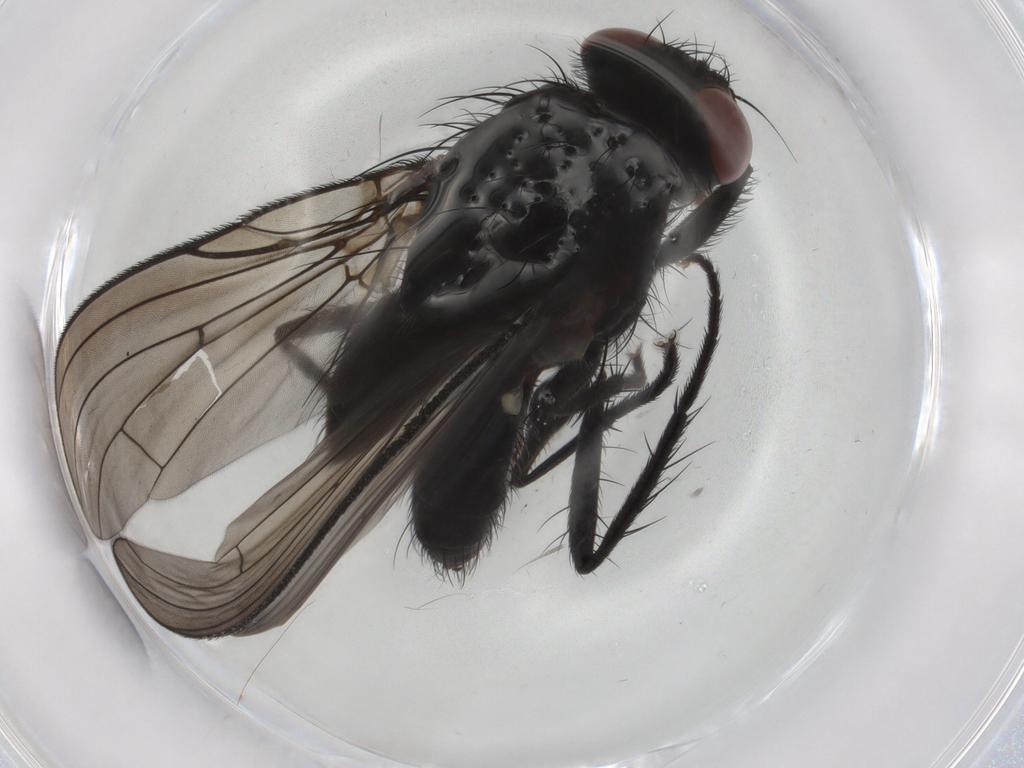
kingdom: Animalia
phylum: Arthropoda
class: Insecta
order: Diptera
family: Anthomyiidae
